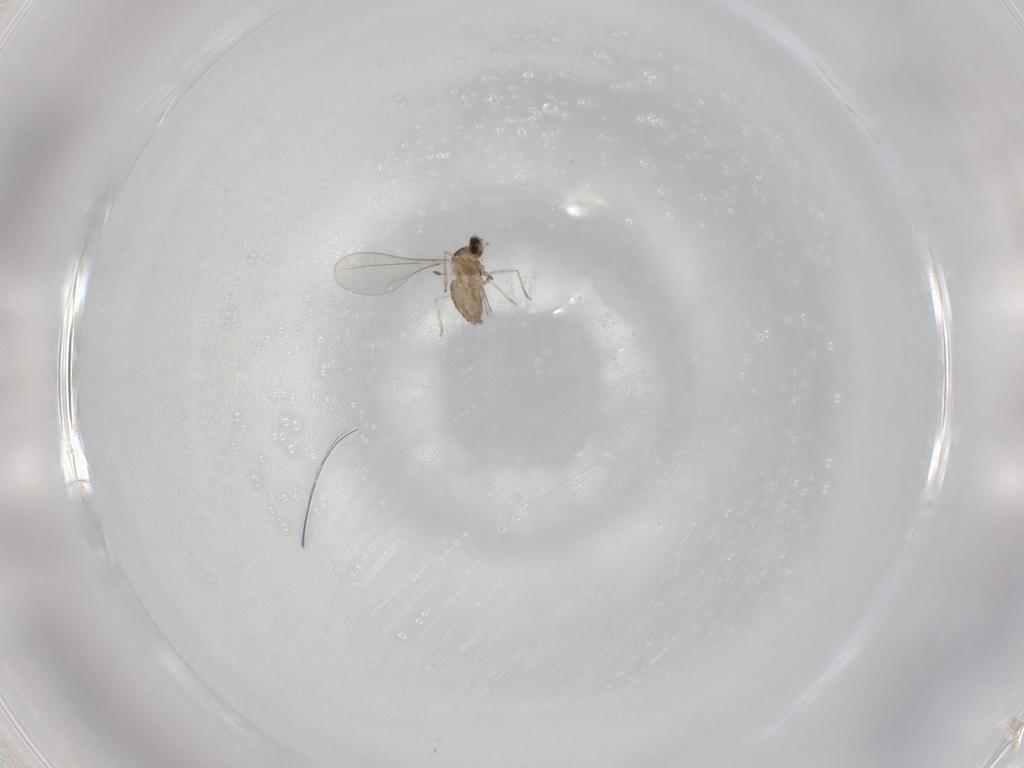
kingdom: Animalia
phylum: Arthropoda
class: Insecta
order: Diptera
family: Cecidomyiidae
